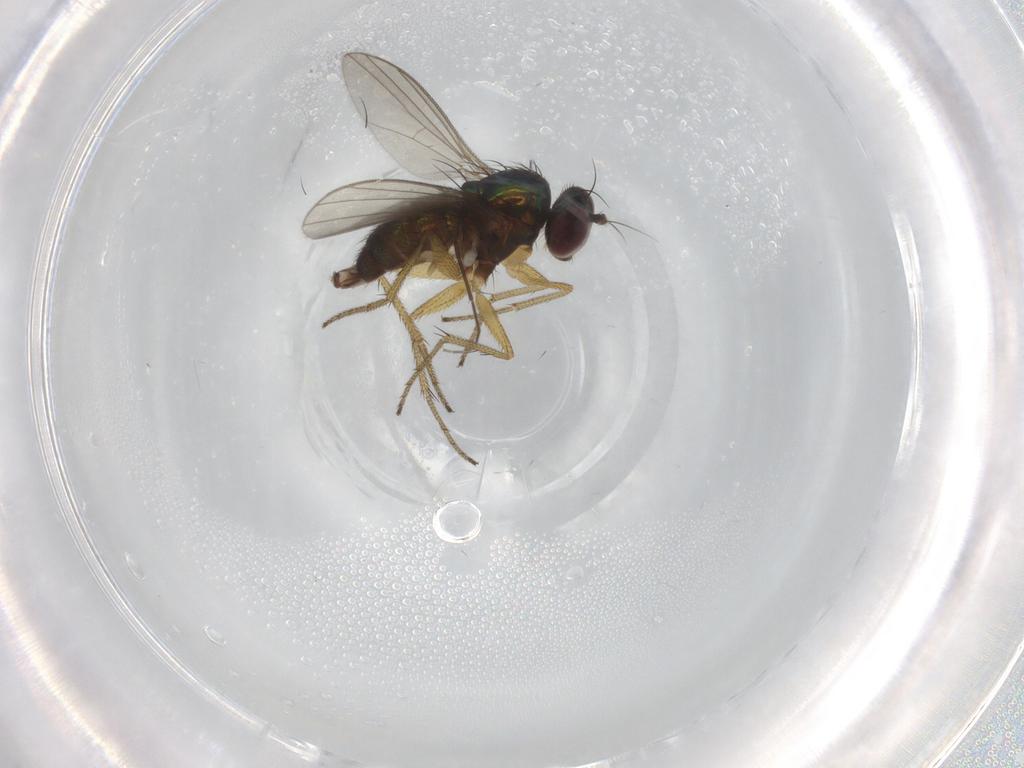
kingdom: Animalia
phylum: Arthropoda
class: Insecta
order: Diptera
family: Chironomidae
